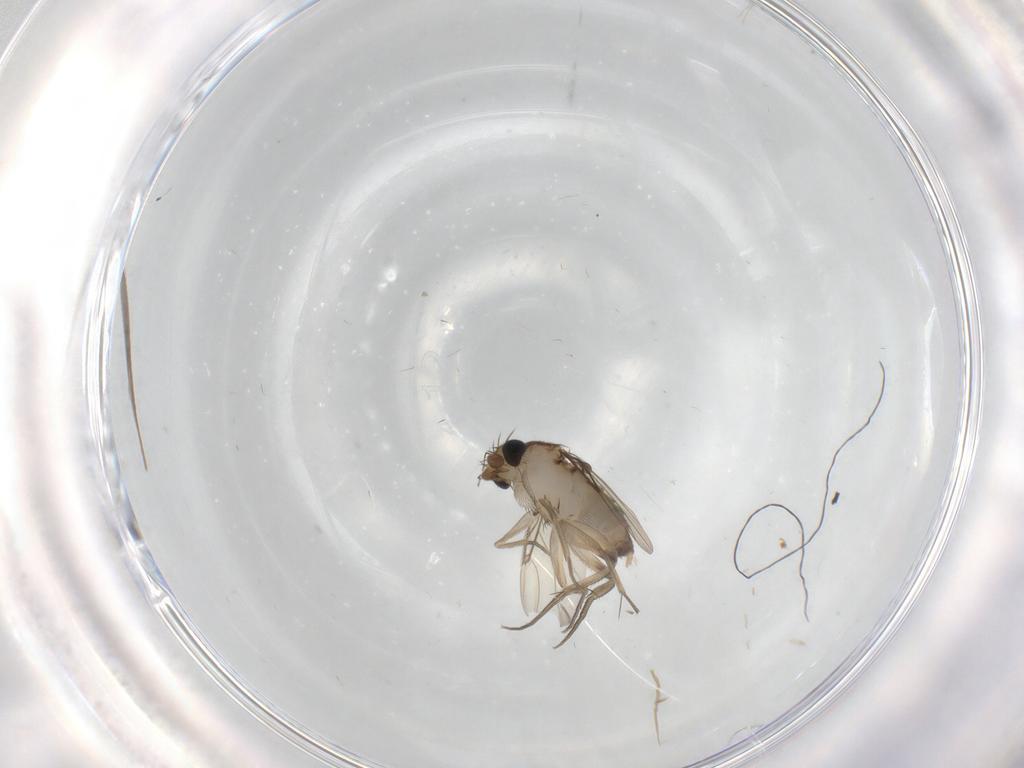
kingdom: Animalia
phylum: Arthropoda
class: Insecta
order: Diptera
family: Phoridae
